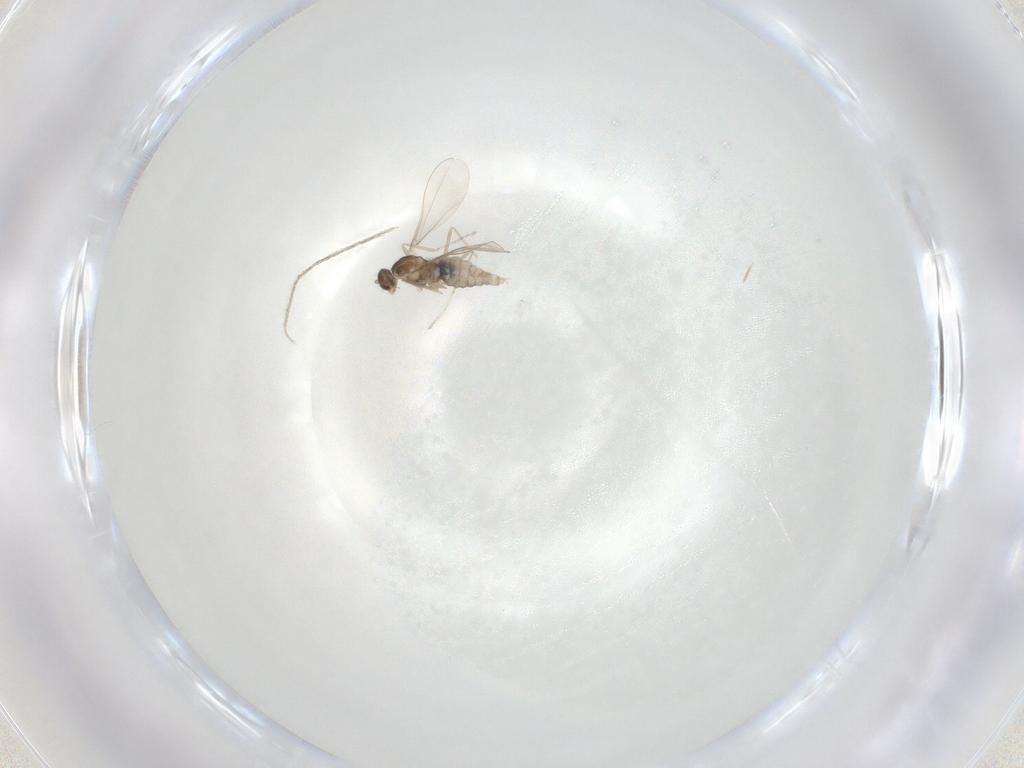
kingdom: Animalia
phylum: Arthropoda
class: Insecta
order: Diptera
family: Cecidomyiidae
